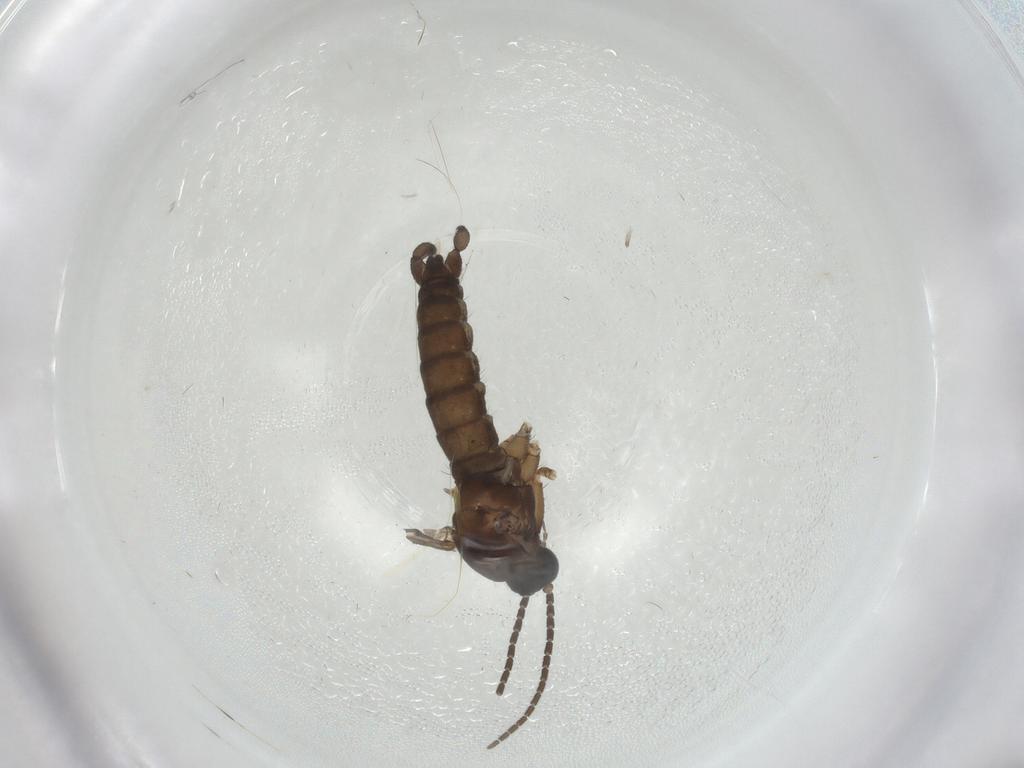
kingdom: Animalia
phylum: Arthropoda
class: Insecta
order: Diptera
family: Sciaridae
